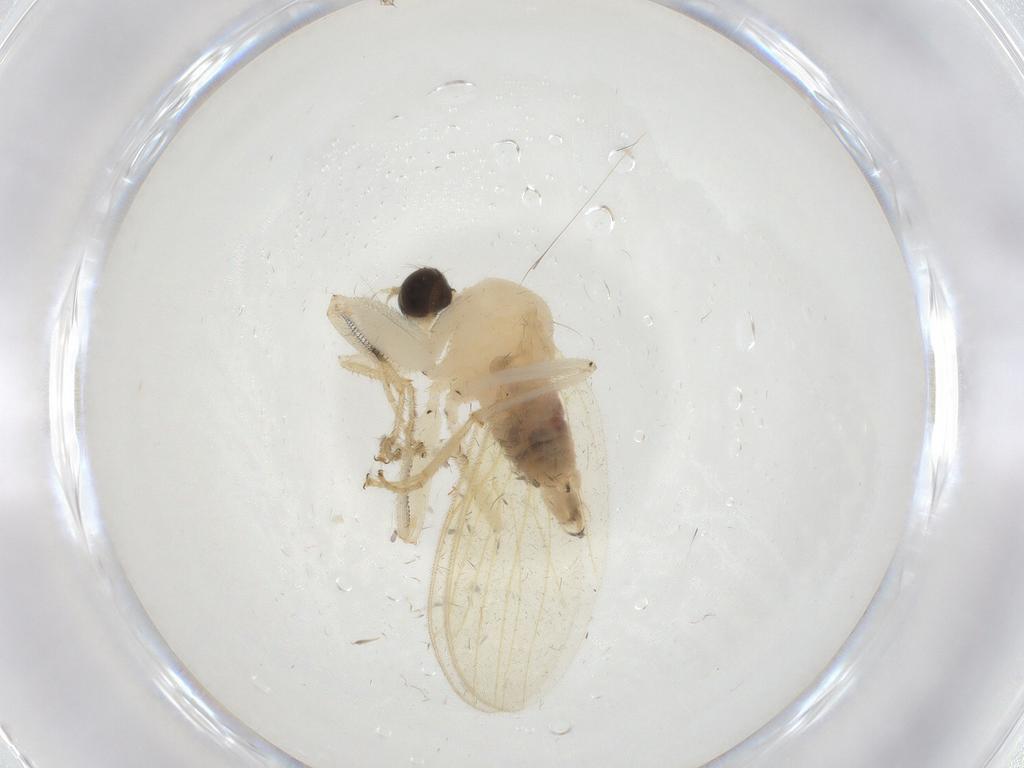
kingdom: Animalia
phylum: Arthropoda
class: Insecta
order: Diptera
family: Hybotidae
